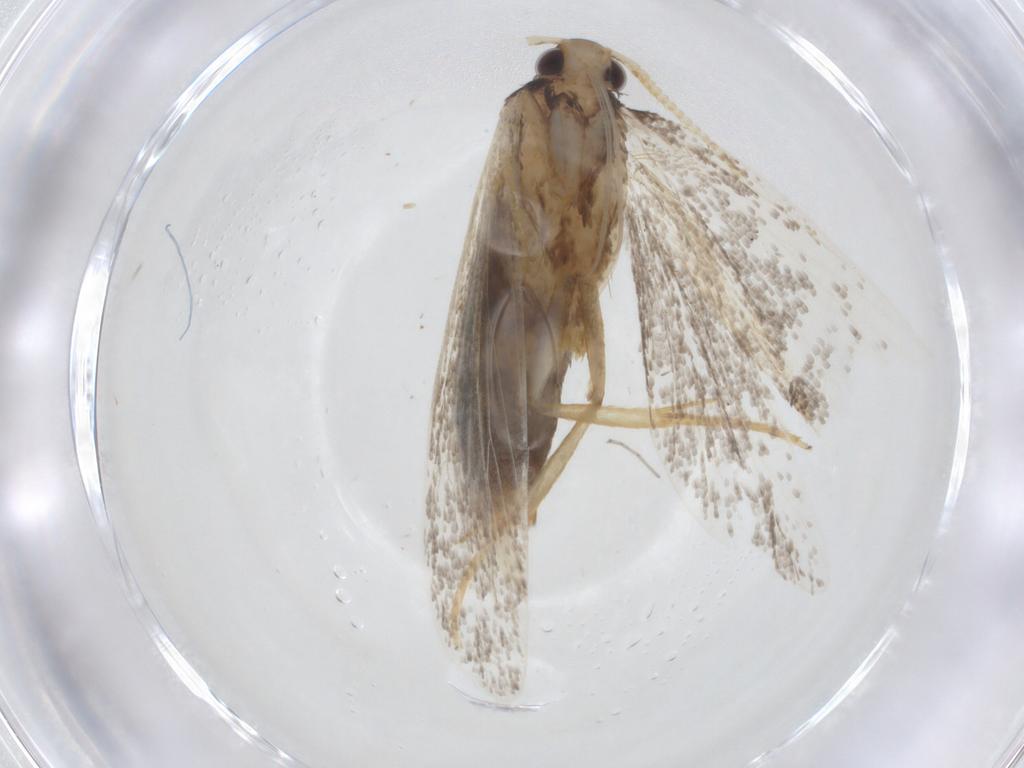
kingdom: Animalia
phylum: Arthropoda
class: Insecta
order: Lepidoptera
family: Lecithoceridae
